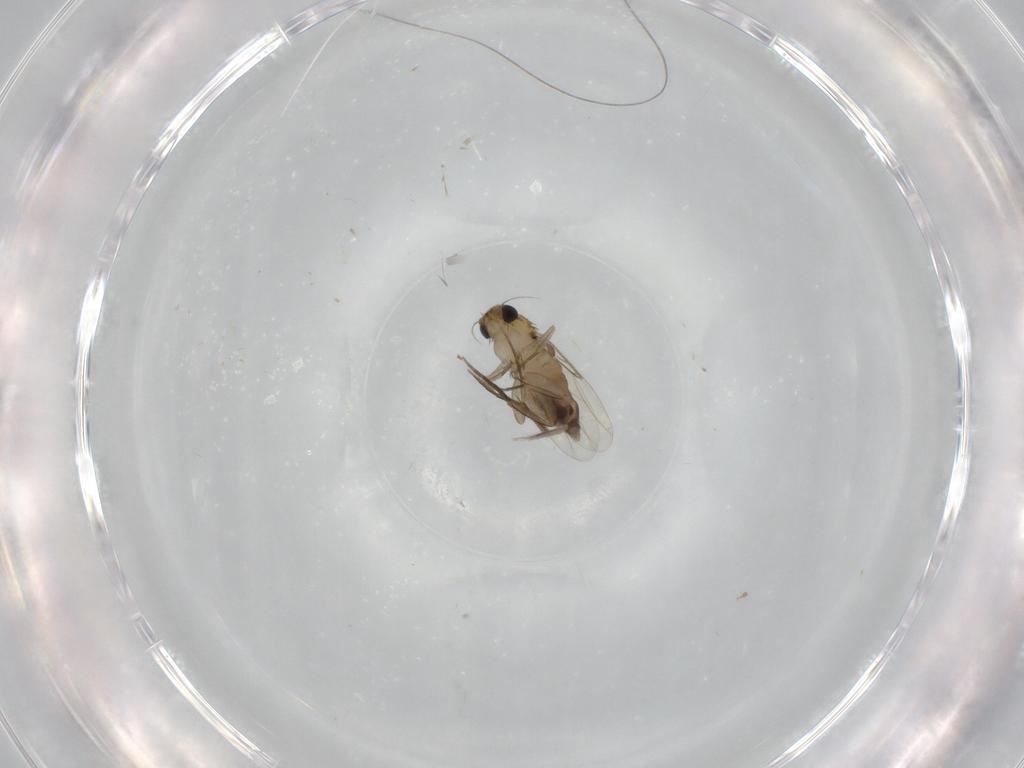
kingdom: Animalia
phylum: Arthropoda
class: Insecta
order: Diptera
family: Phoridae
